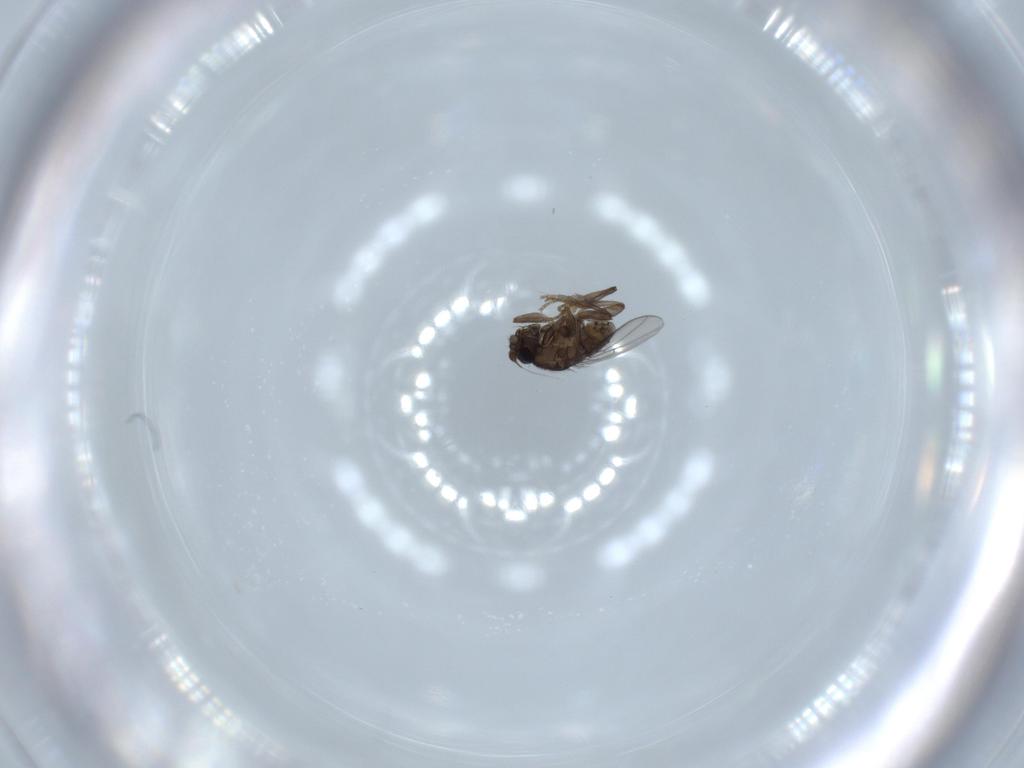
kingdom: Animalia
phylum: Arthropoda
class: Insecta
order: Diptera
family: Sphaeroceridae
